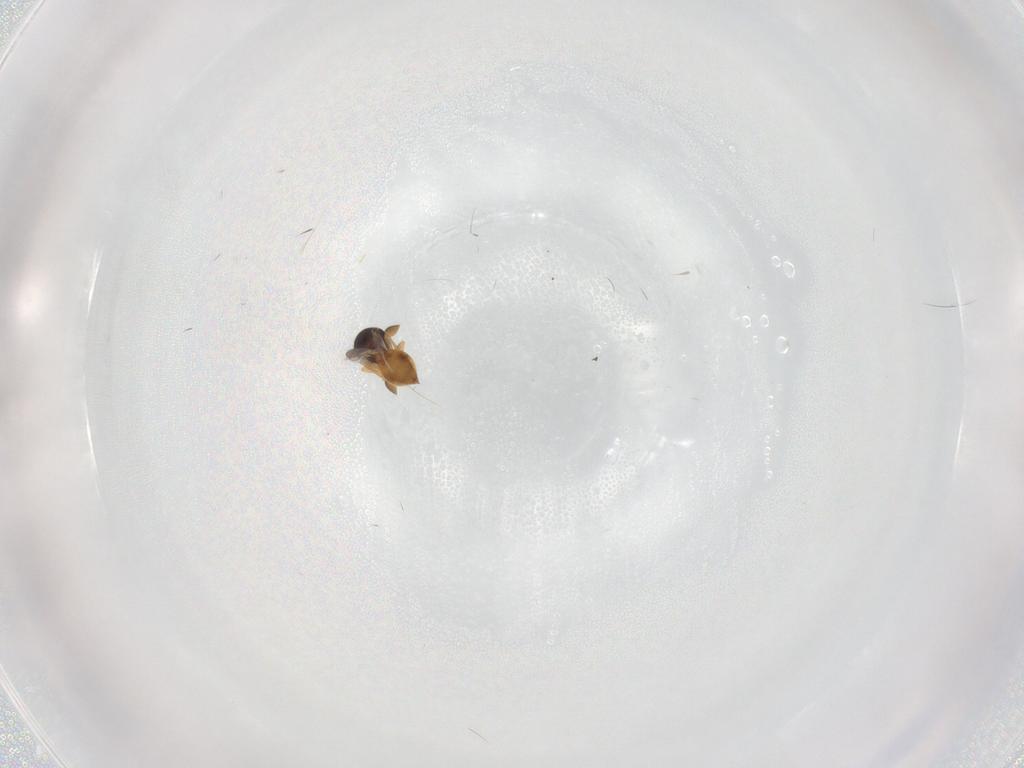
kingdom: Animalia
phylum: Arthropoda
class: Insecta
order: Hymenoptera
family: Scelionidae
